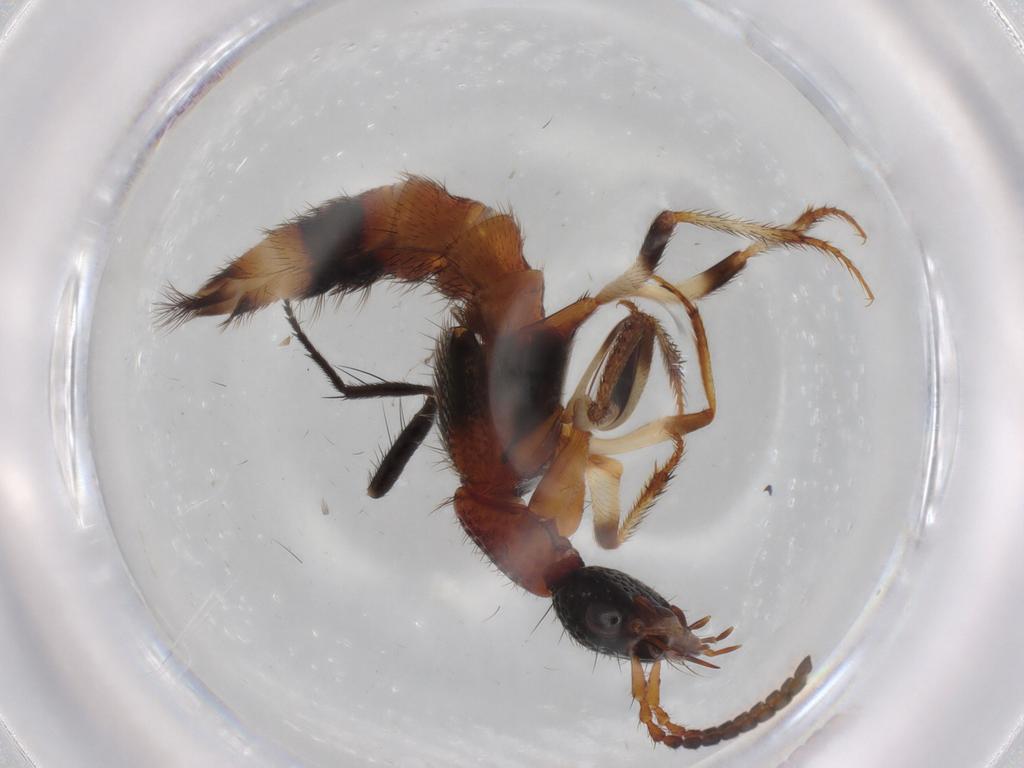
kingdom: Animalia
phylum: Arthropoda
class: Insecta
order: Coleoptera
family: Staphylinidae
